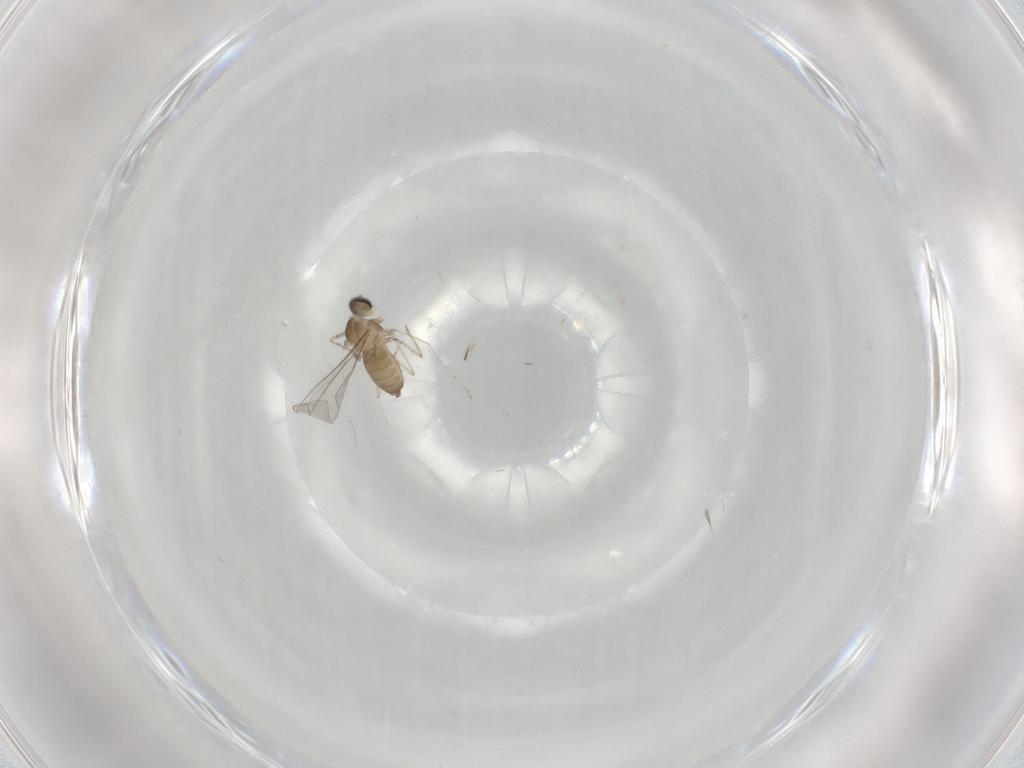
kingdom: Animalia
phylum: Arthropoda
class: Insecta
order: Diptera
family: Cecidomyiidae
